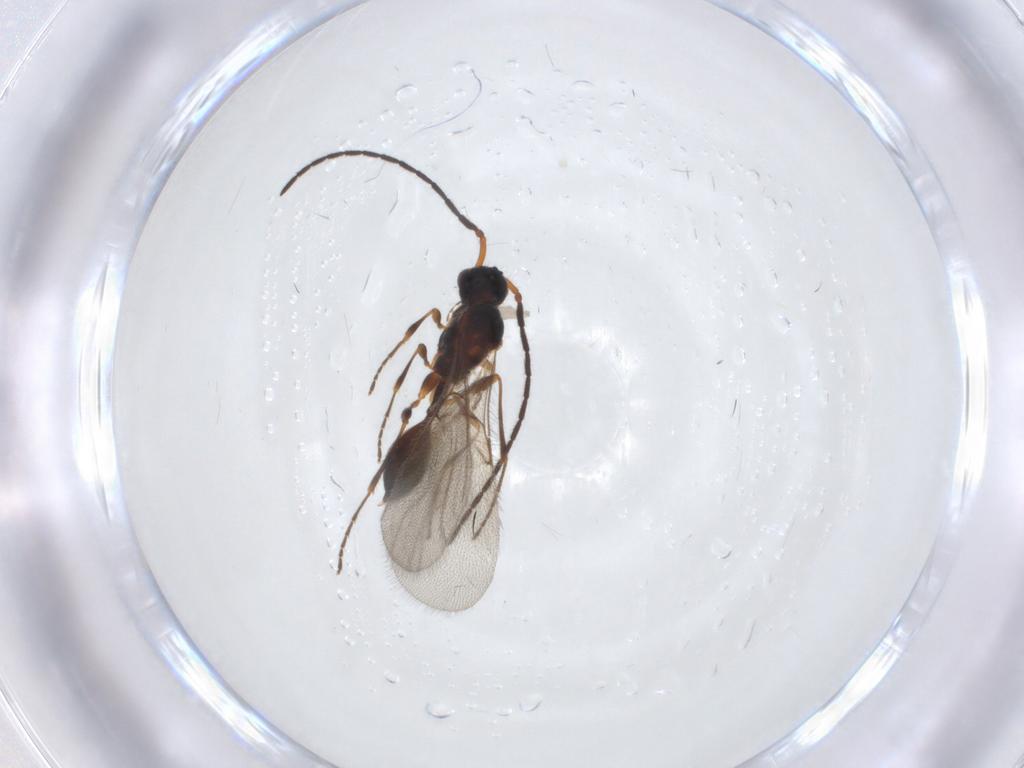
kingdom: Animalia
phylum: Arthropoda
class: Insecta
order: Hymenoptera
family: Diapriidae
